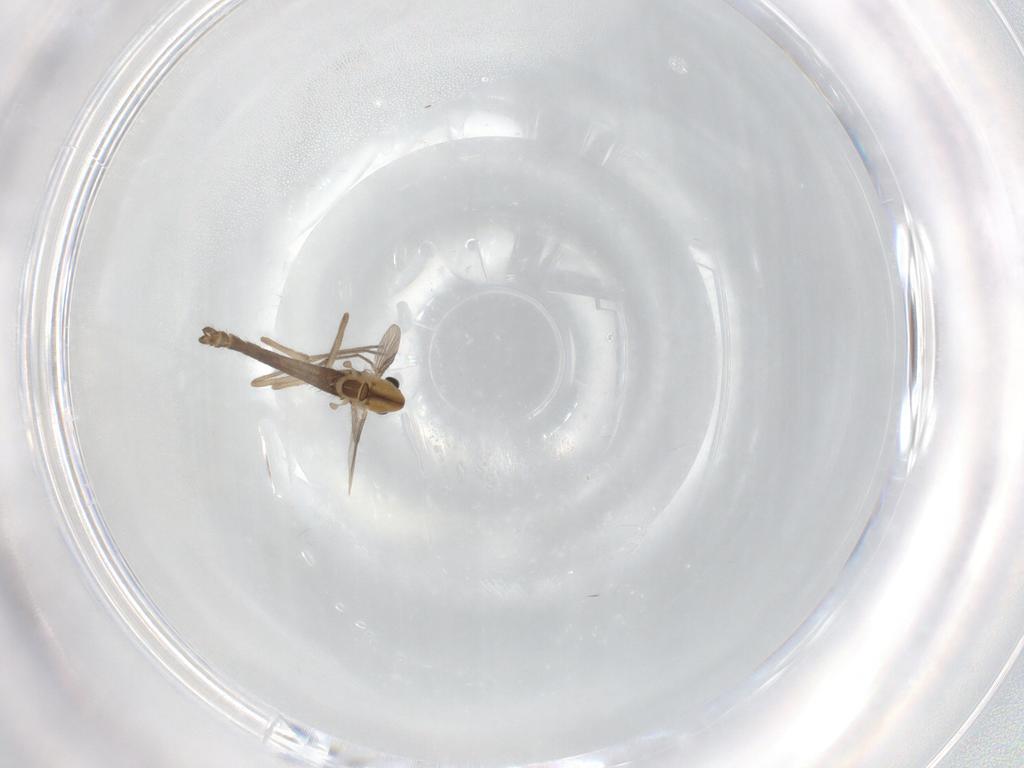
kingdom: Animalia
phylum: Arthropoda
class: Insecta
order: Diptera
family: Chironomidae
